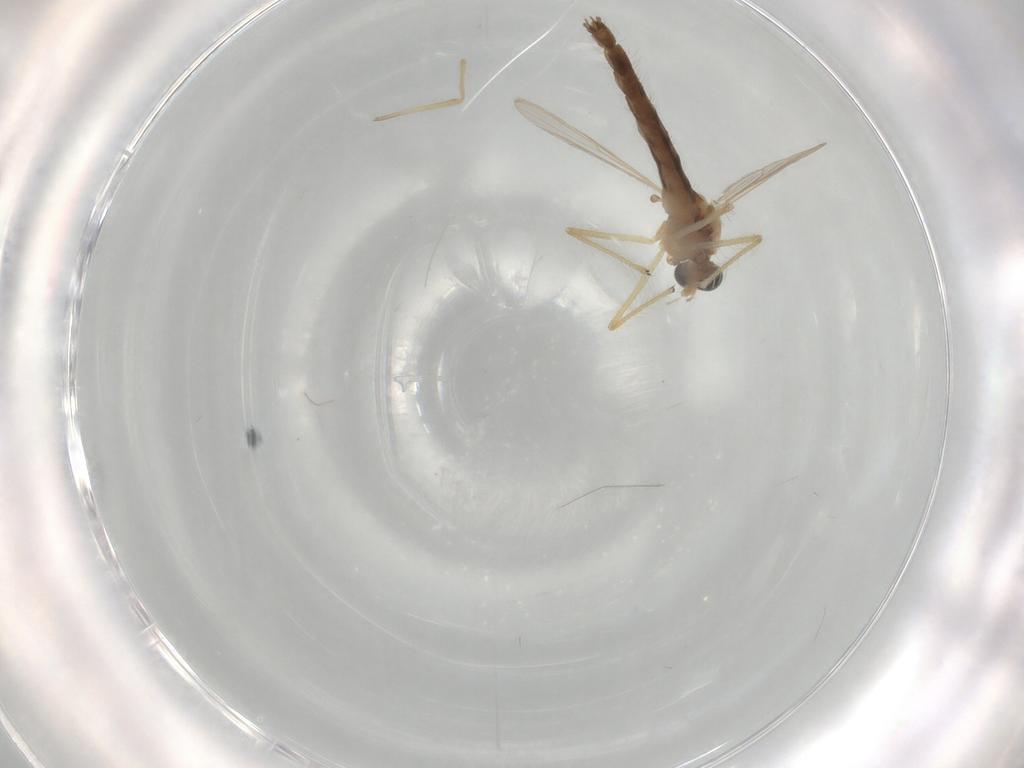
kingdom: Animalia
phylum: Arthropoda
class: Insecta
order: Diptera
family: Chironomidae
